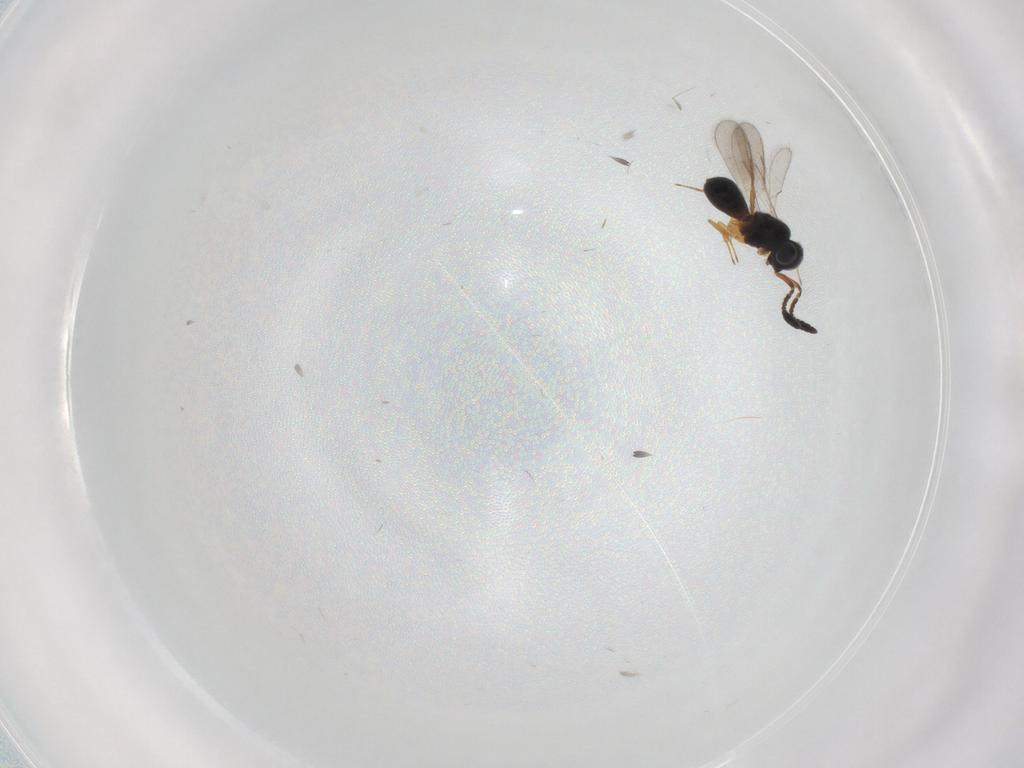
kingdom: Animalia
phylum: Arthropoda
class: Insecta
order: Hymenoptera
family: Scelionidae
